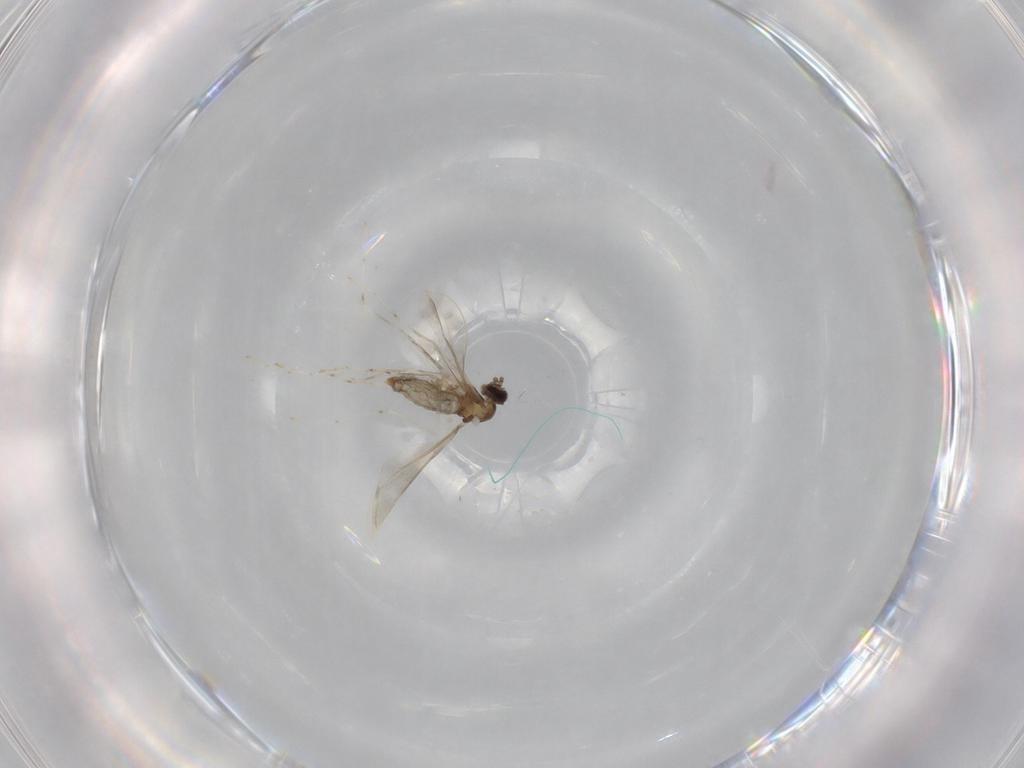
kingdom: Animalia
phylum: Arthropoda
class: Insecta
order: Diptera
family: Cecidomyiidae
